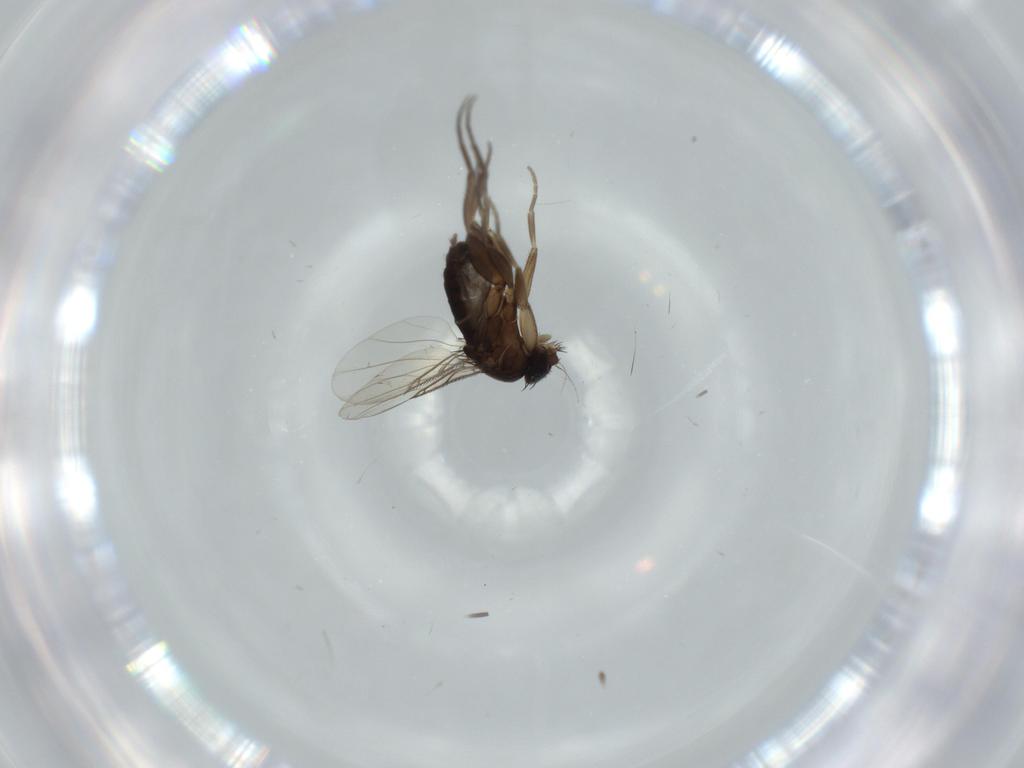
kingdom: Animalia
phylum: Arthropoda
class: Insecta
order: Diptera
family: Phoridae
